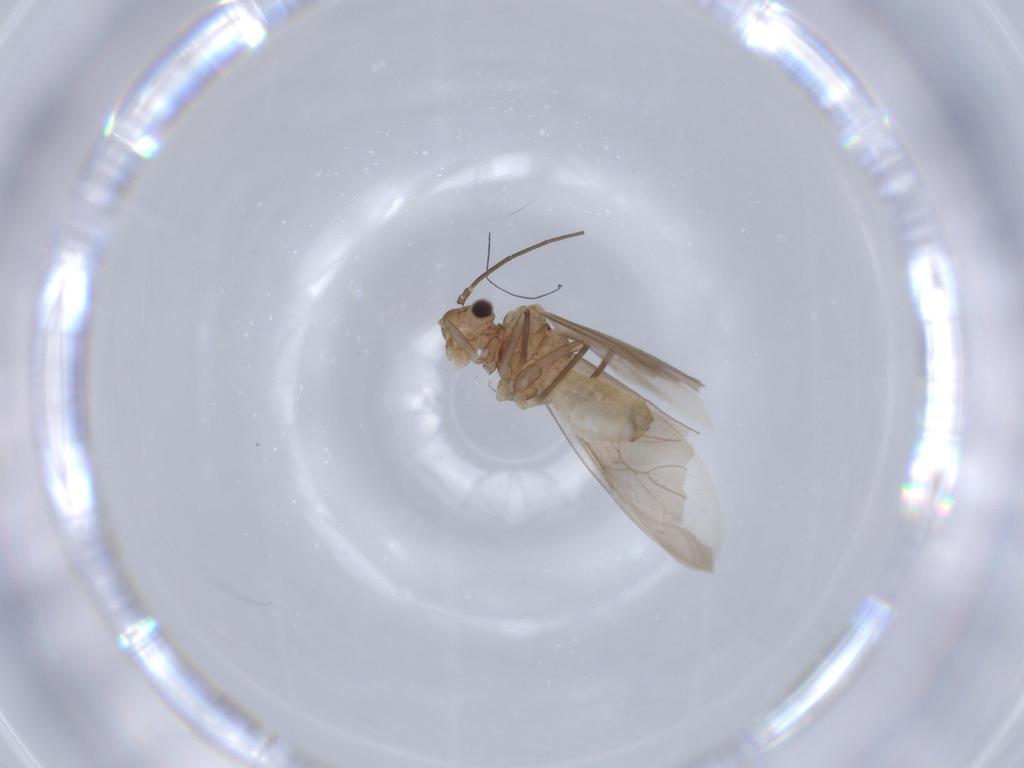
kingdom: Animalia
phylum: Arthropoda
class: Insecta
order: Psocodea
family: Caeciliusidae
